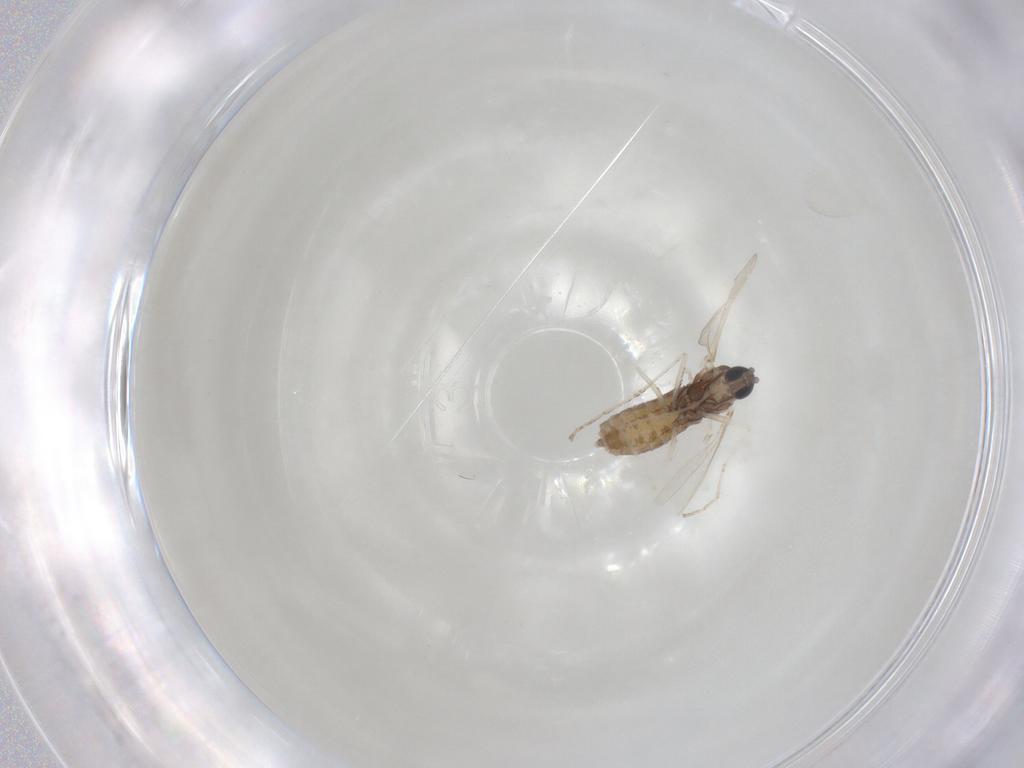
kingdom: Animalia
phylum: Arthropoda
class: Insecta
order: Diptera
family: Cecidomyiidae
